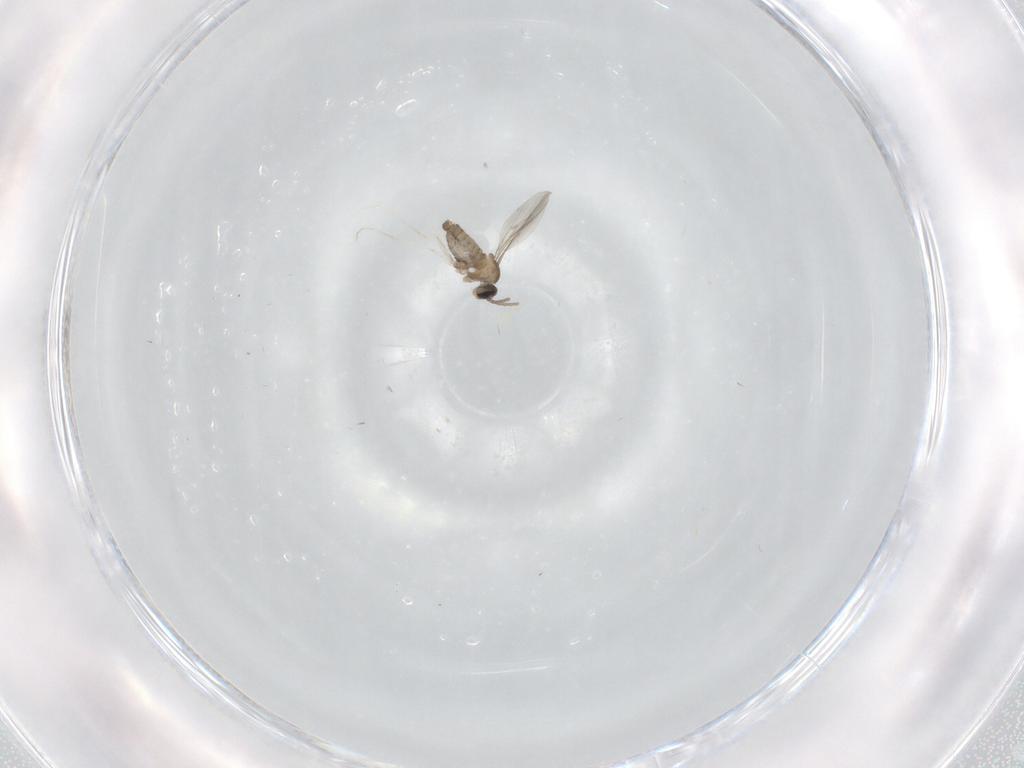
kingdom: Animalia
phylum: Arthropoda
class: Insecta
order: Diptera
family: Cecidomyiidae
